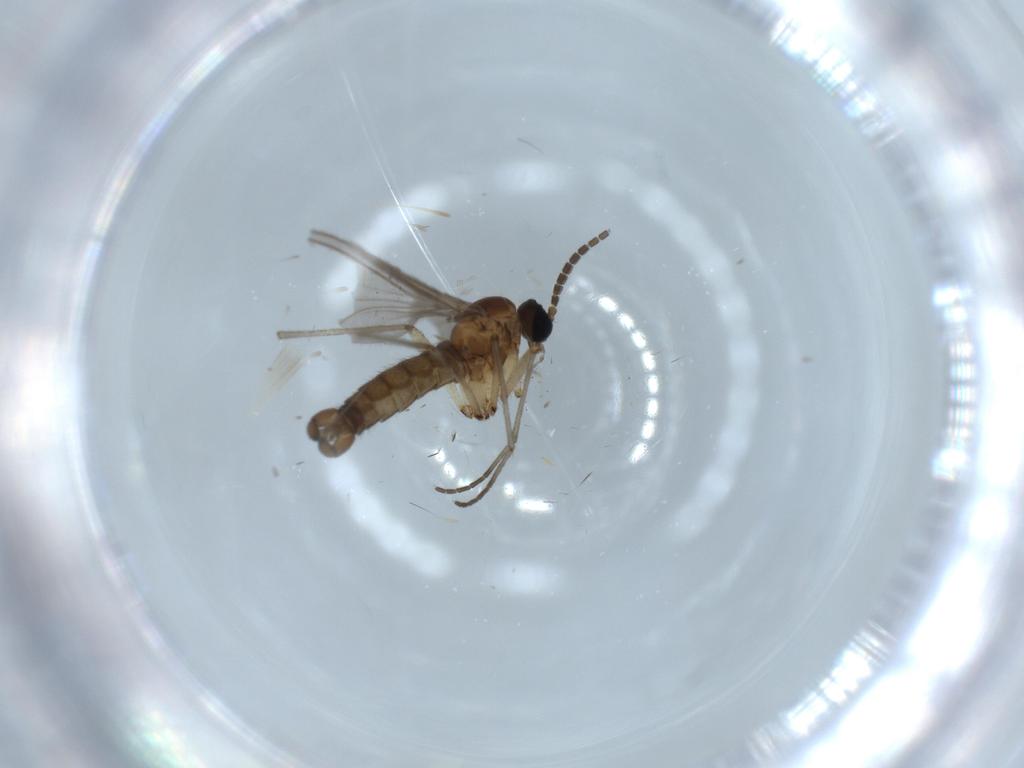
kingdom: Animalia
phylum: Arthropoda
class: Insecta
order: Diptera
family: Sciaridae
